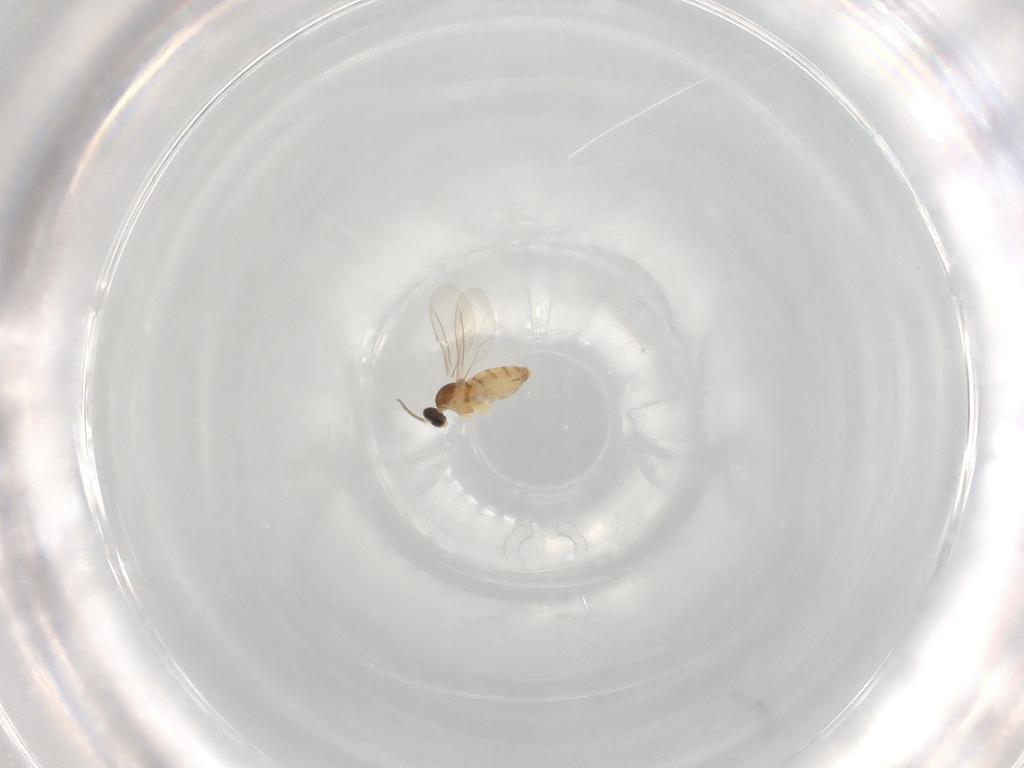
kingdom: Animalia
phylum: Arthropoda
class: Insecta
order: Diptera
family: Cecidomyiidae
